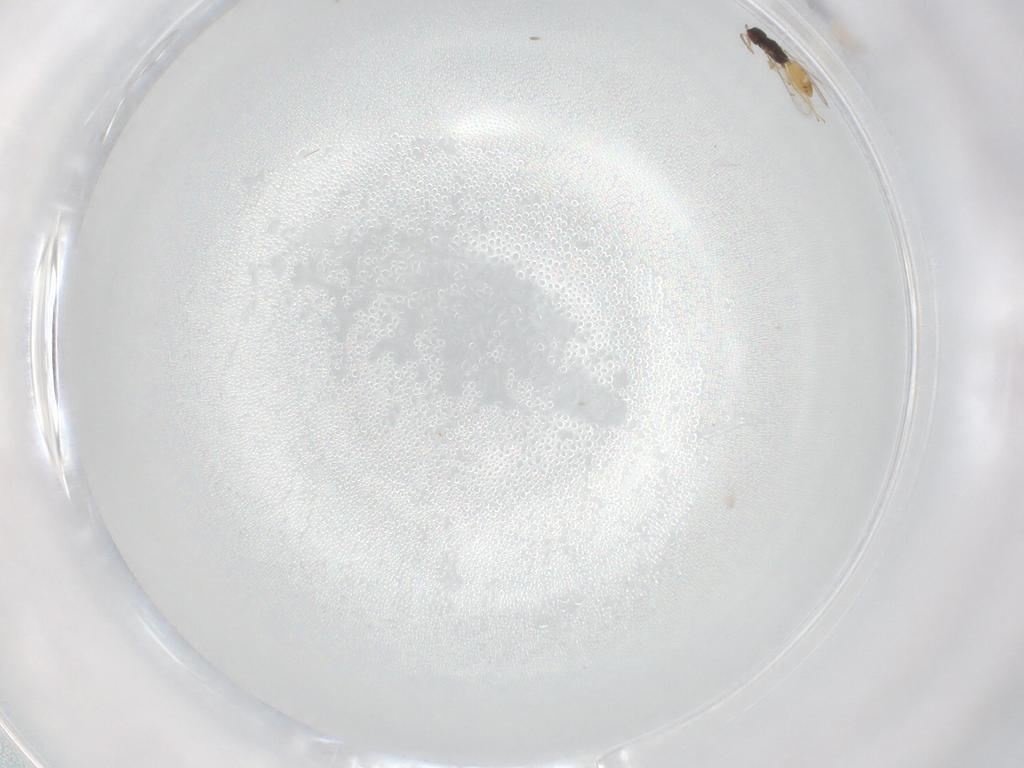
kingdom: Animalia
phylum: Arthropoda
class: Insecta
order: Hymenoptera
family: Eulophidae
